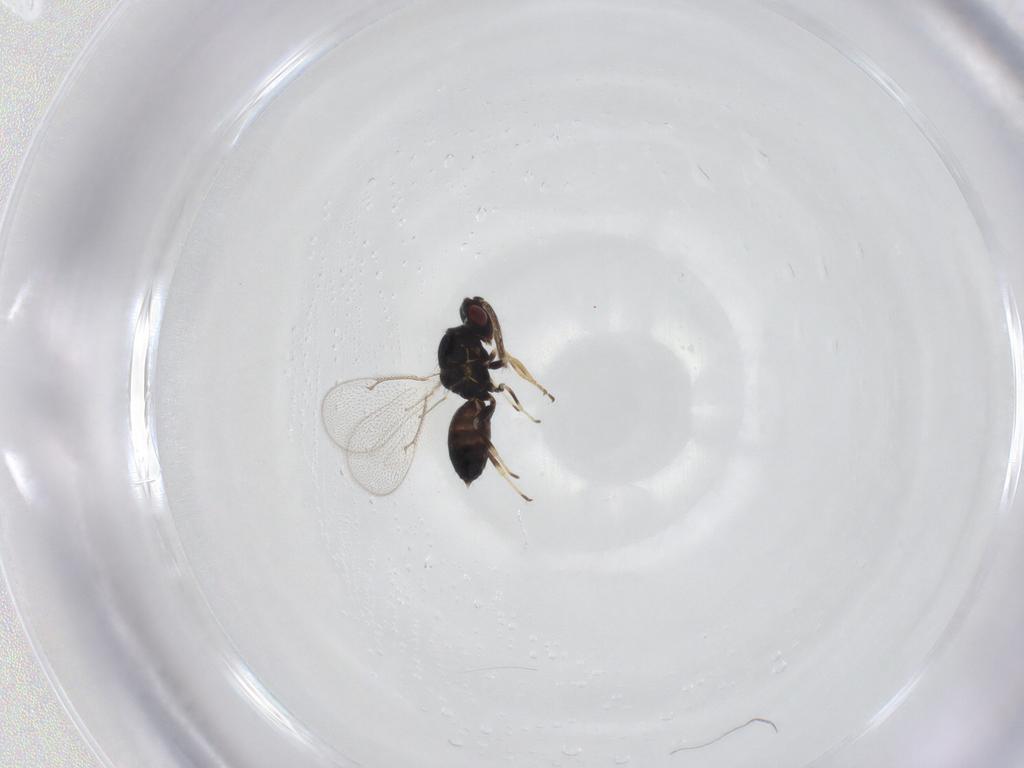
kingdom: Animalia
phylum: Arthropoda
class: Insecta
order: Hymenoptera
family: Eulophidae
